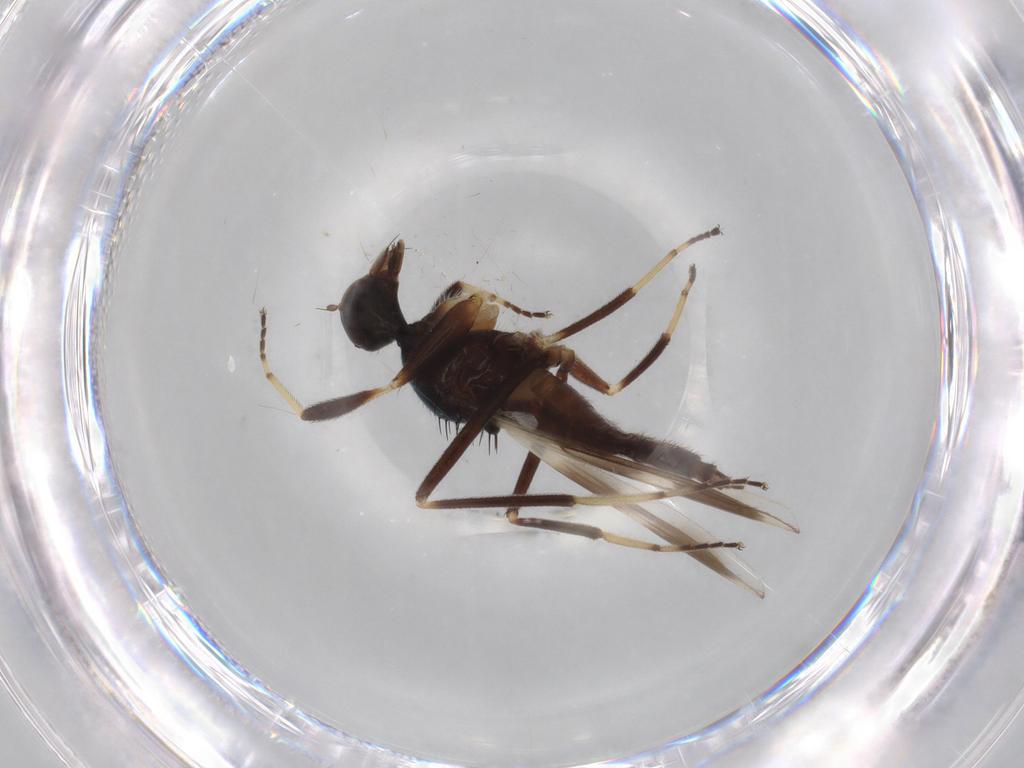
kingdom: Animalia
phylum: Arthropoda
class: Insecta
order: Diptera
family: Hybotidae
